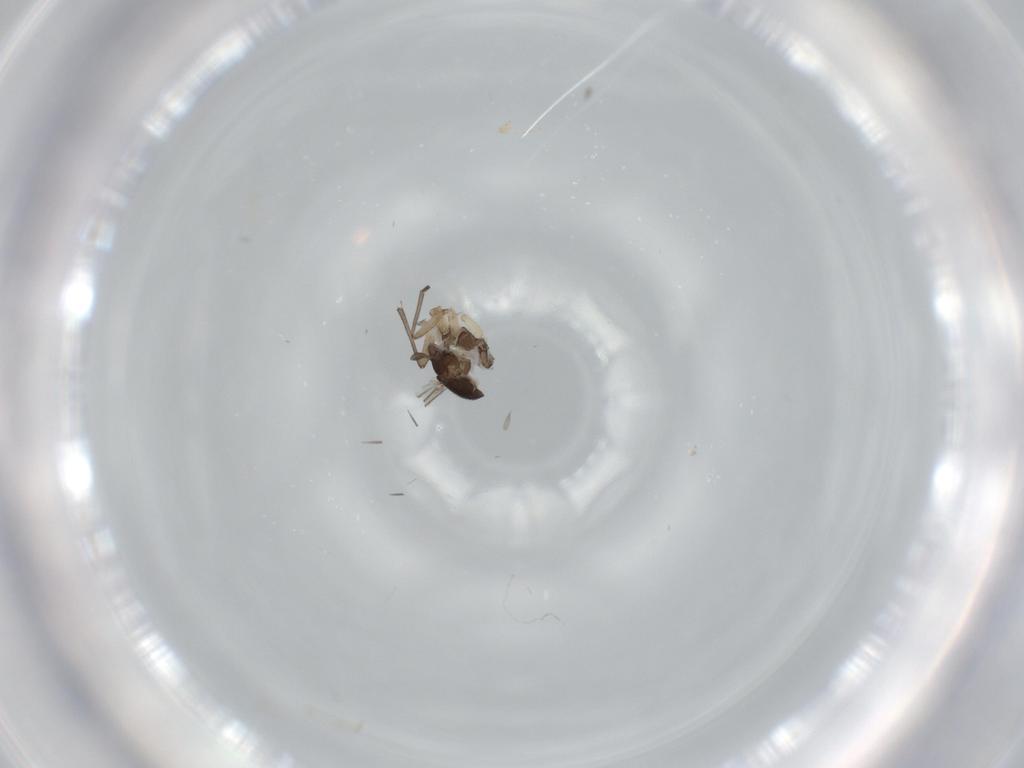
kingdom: Animalia
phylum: Arthropoda
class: Insecta
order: Diptera
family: Sciaridae
